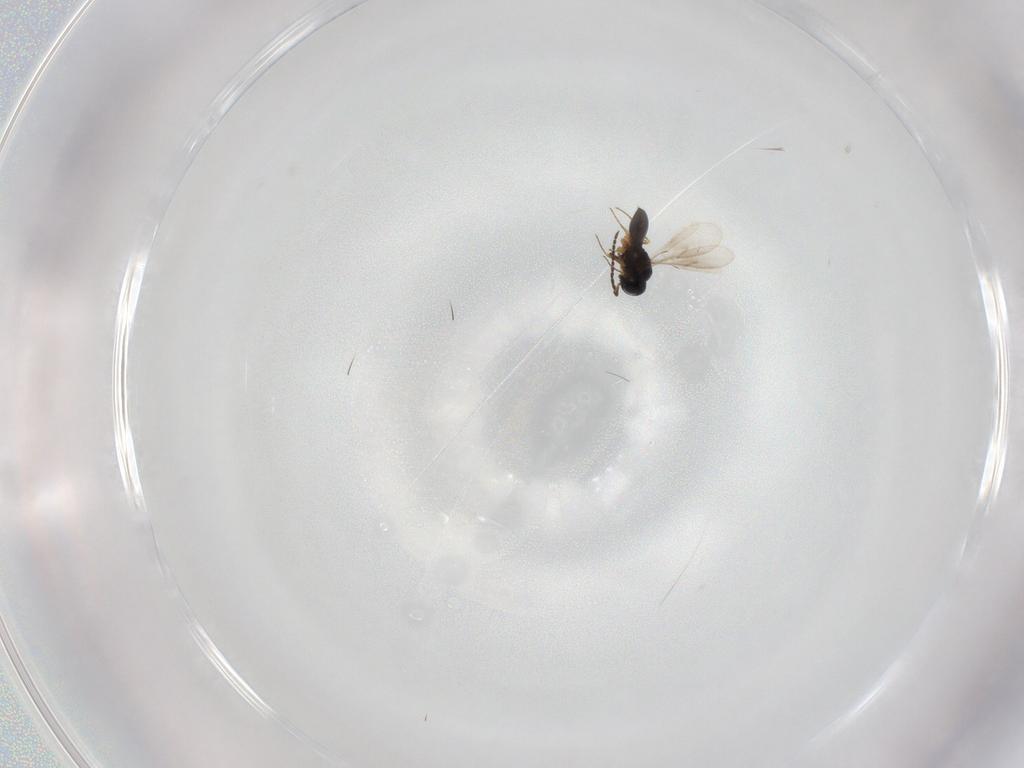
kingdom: Animalia
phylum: Arthropoda
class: Insecta
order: Hymenoptera
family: Scelionidae
